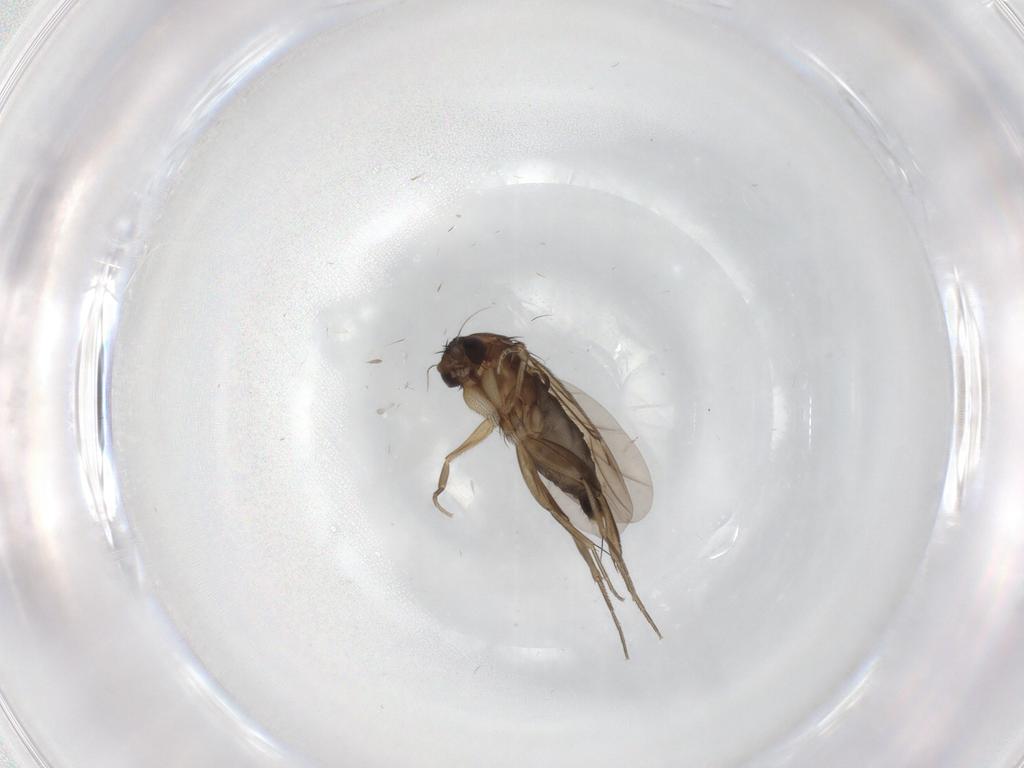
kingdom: Animalia
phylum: Arthropoda
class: Insecta
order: Diptera
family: Phoridae
